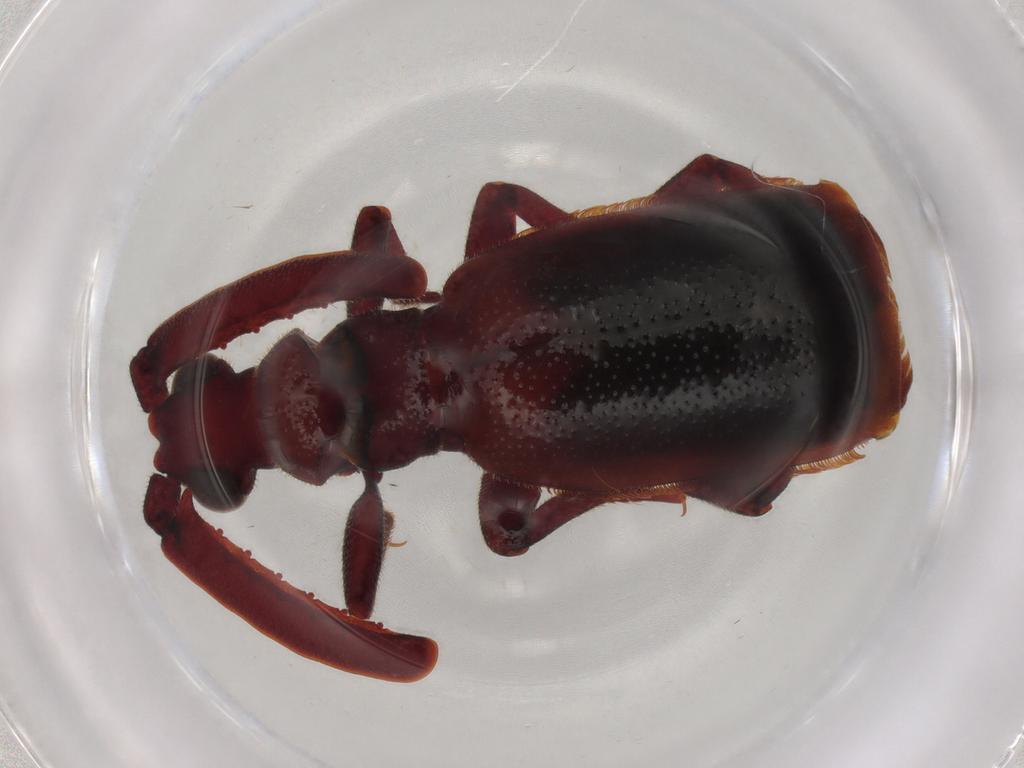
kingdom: Animalia
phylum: Arthropoda
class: Insecta
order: Coleoptera
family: Carabidae
